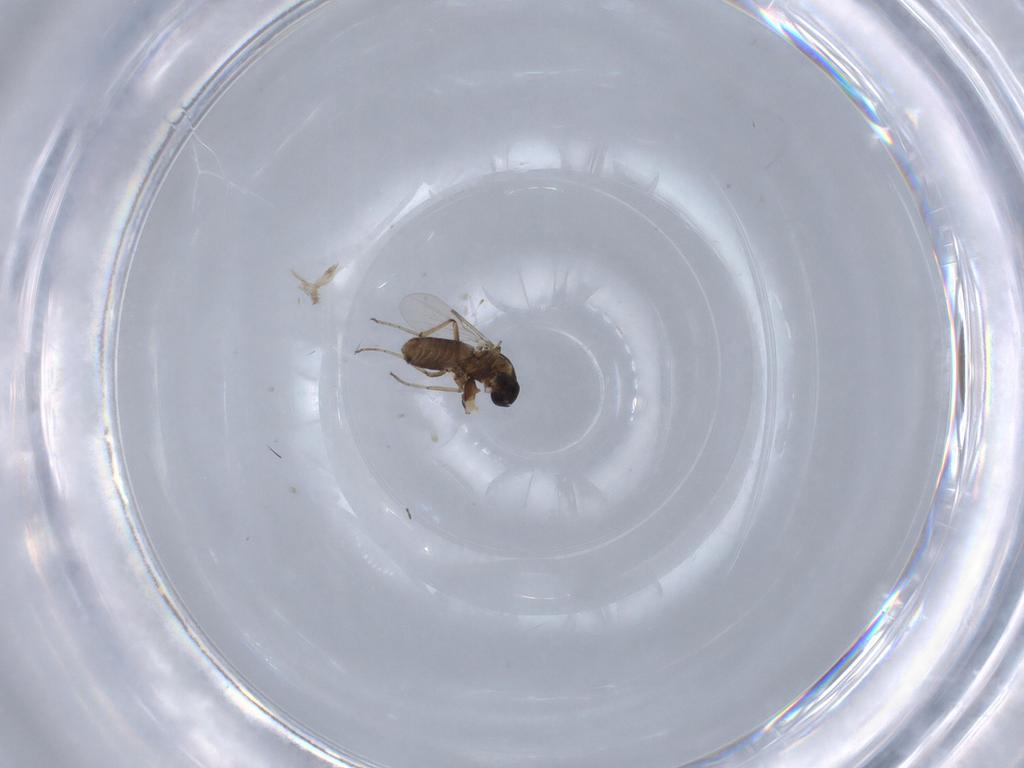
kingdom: Animalia
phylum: Arthropoda
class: Insecta
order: Diptera
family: Ceratopogonidae
